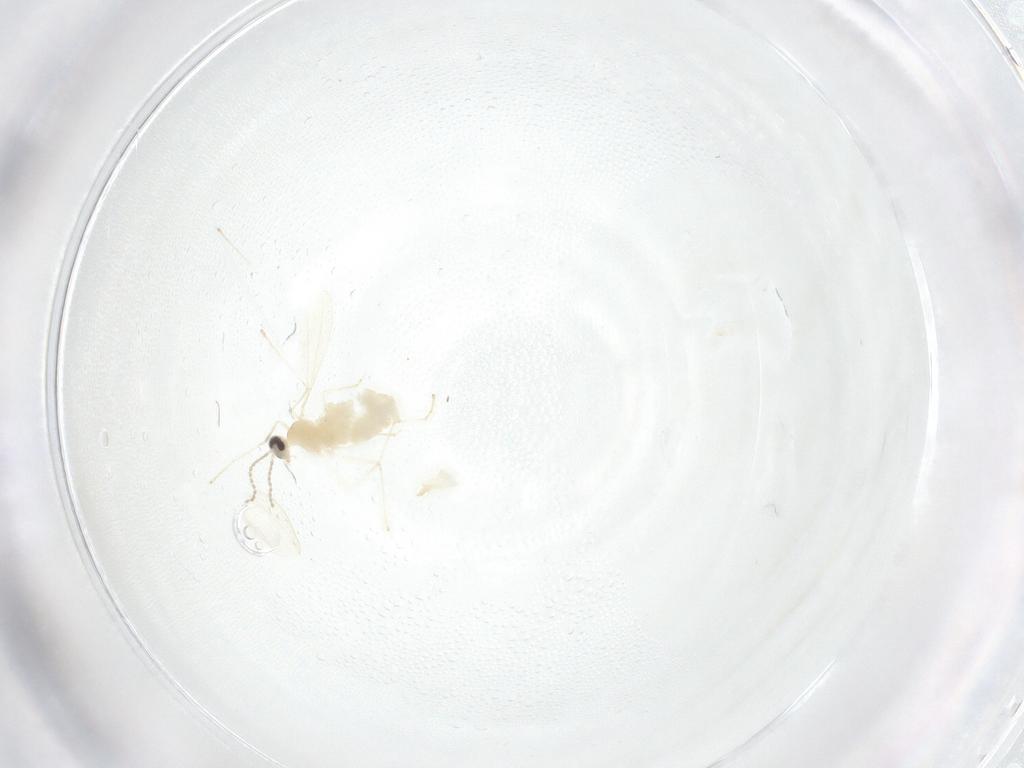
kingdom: Animalia
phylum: Arthropoda
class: Insecta
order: Diptera
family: Cecidomyiidae
